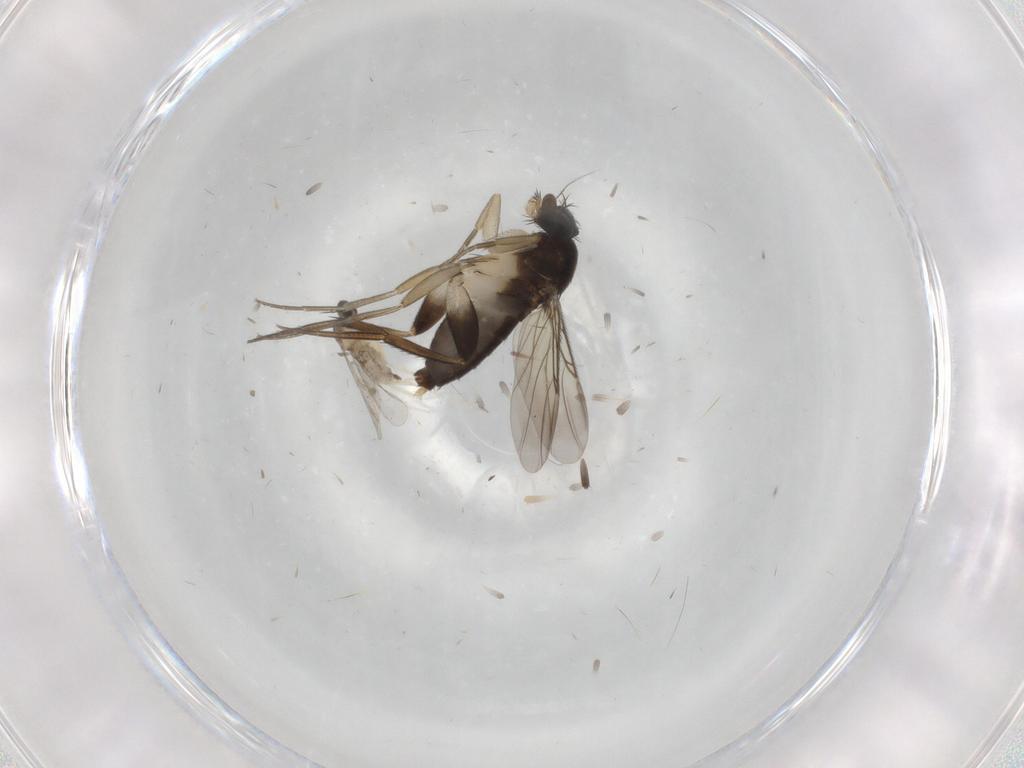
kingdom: Animalia
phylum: Arthropoda
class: Insecta
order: Diptera
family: Phoridae
